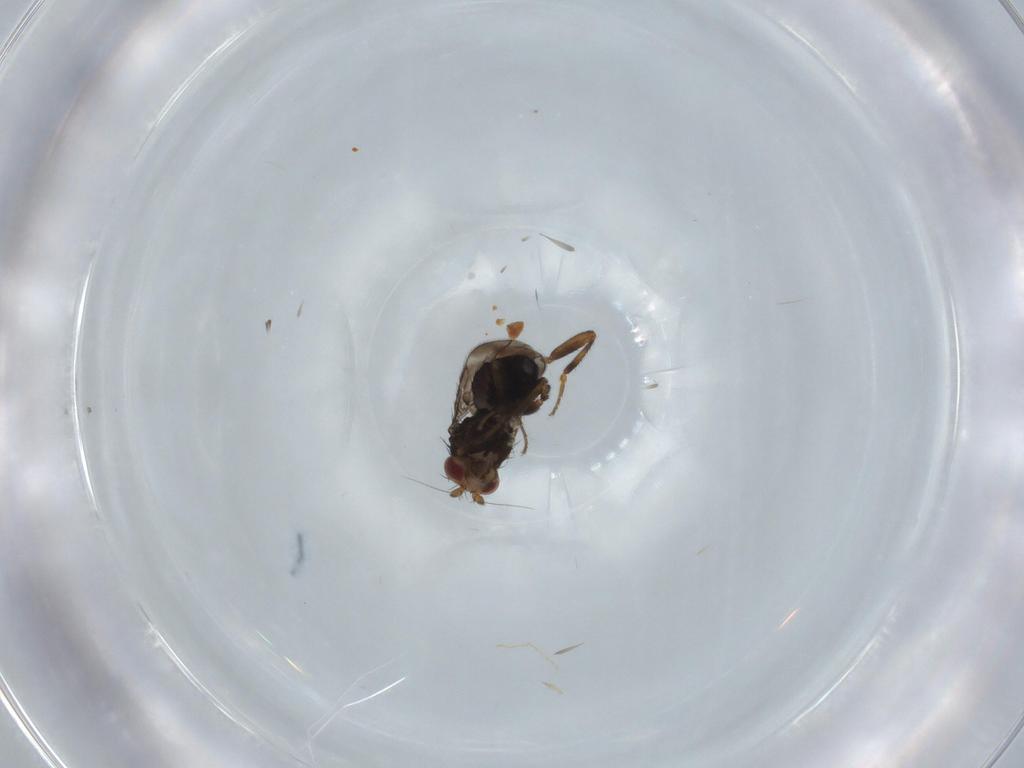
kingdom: Animalia
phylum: Arthropoda
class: Insecta
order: Diptera
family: Sphaeroceridae
